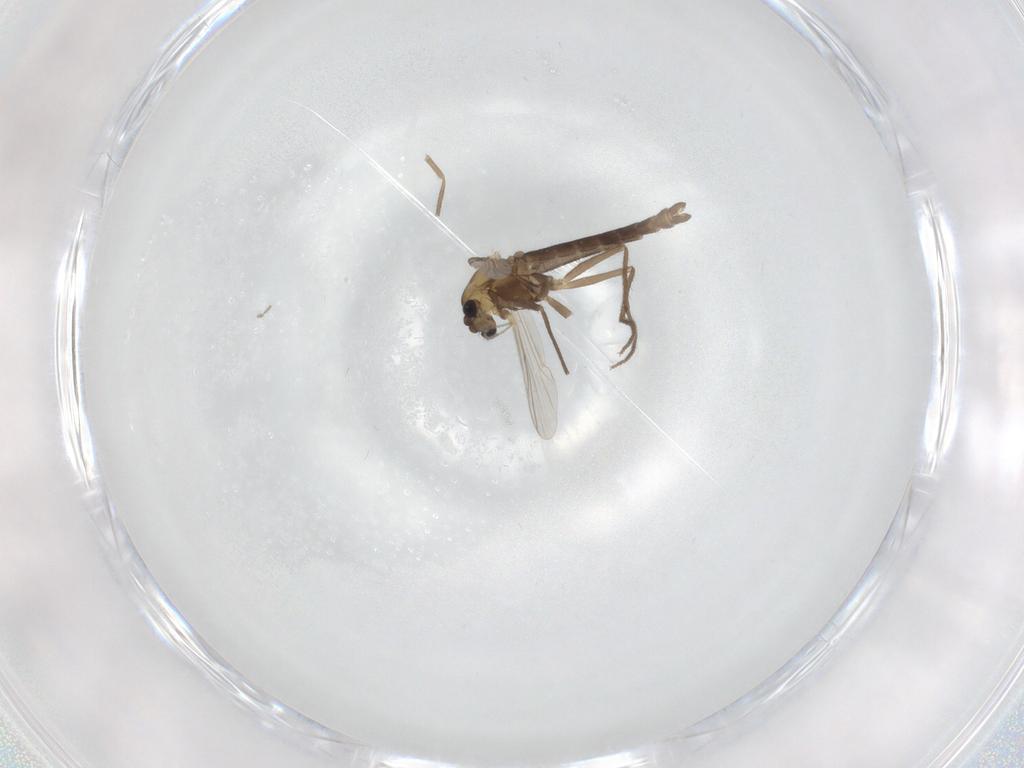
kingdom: Animalia
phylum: Arthropoda
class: Insecta
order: Diptera
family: Chironomidae
